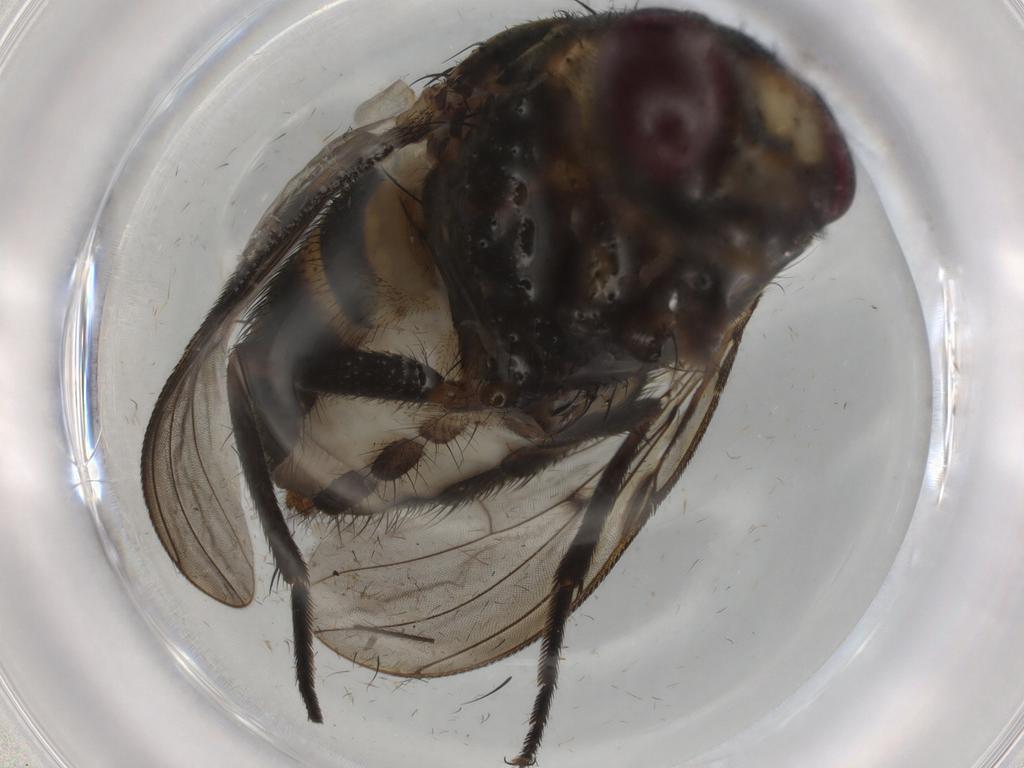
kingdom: Animalia
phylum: Arthropoda
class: Insecta
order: Diptera
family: Muscidae
